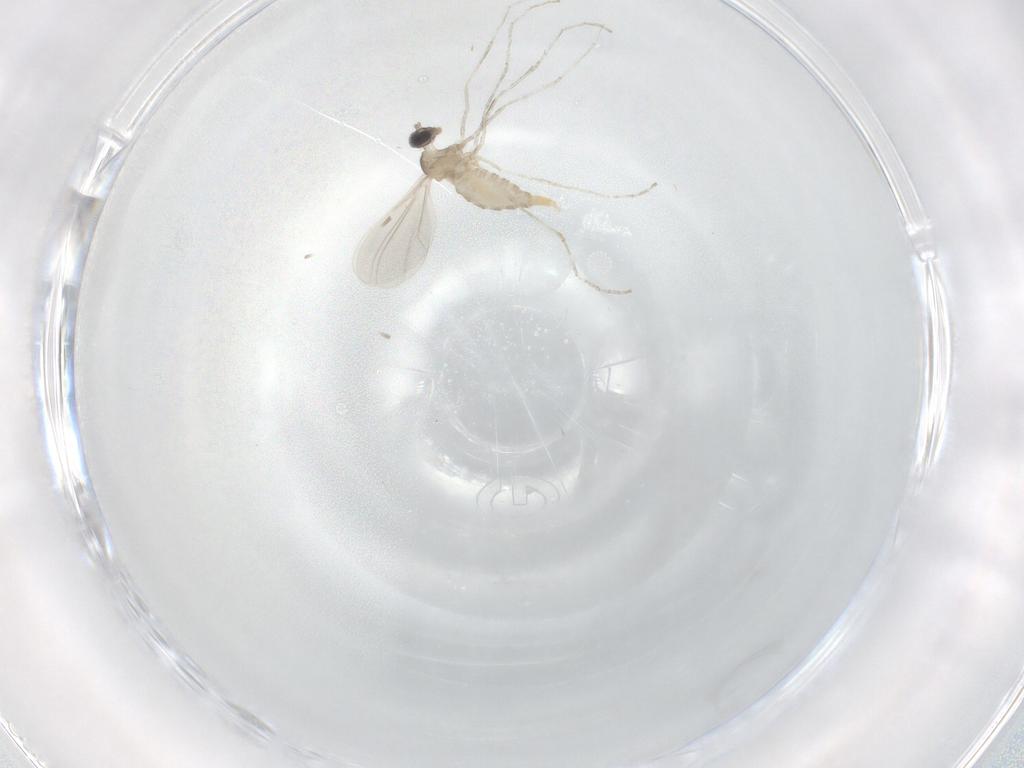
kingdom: Animalia
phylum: Arthropoda
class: Insecta
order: Diptera
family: Cecidomyiidae
